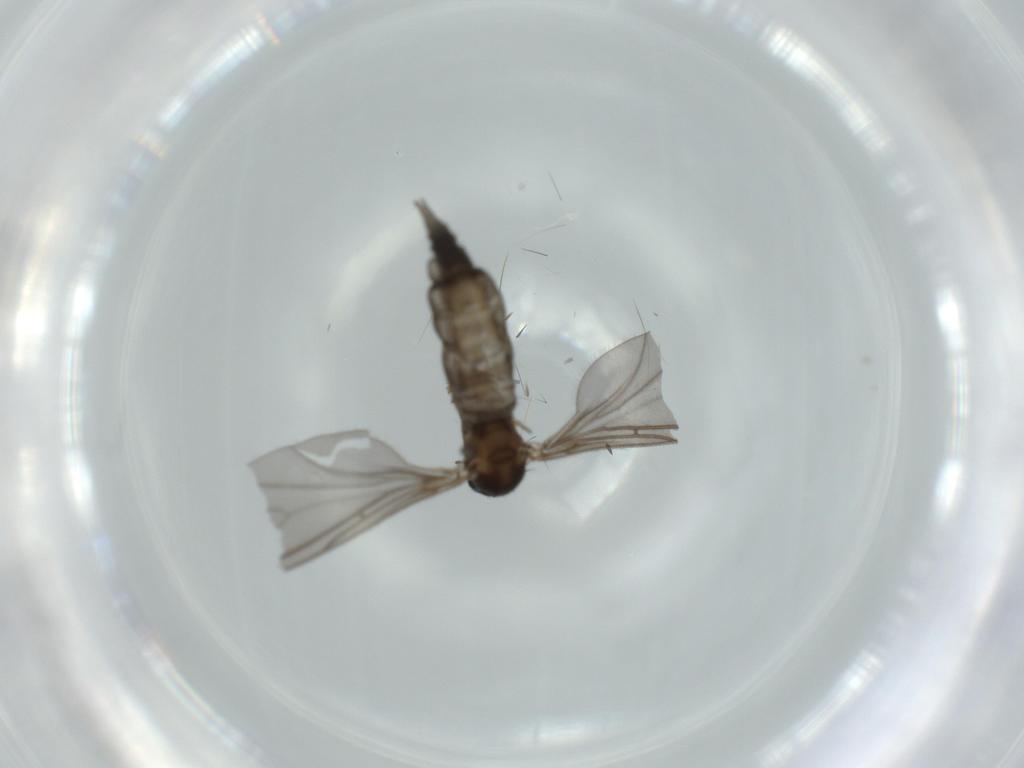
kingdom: Animalia
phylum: Arthropoda
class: Insecta
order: Diptera
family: Sciaridae
